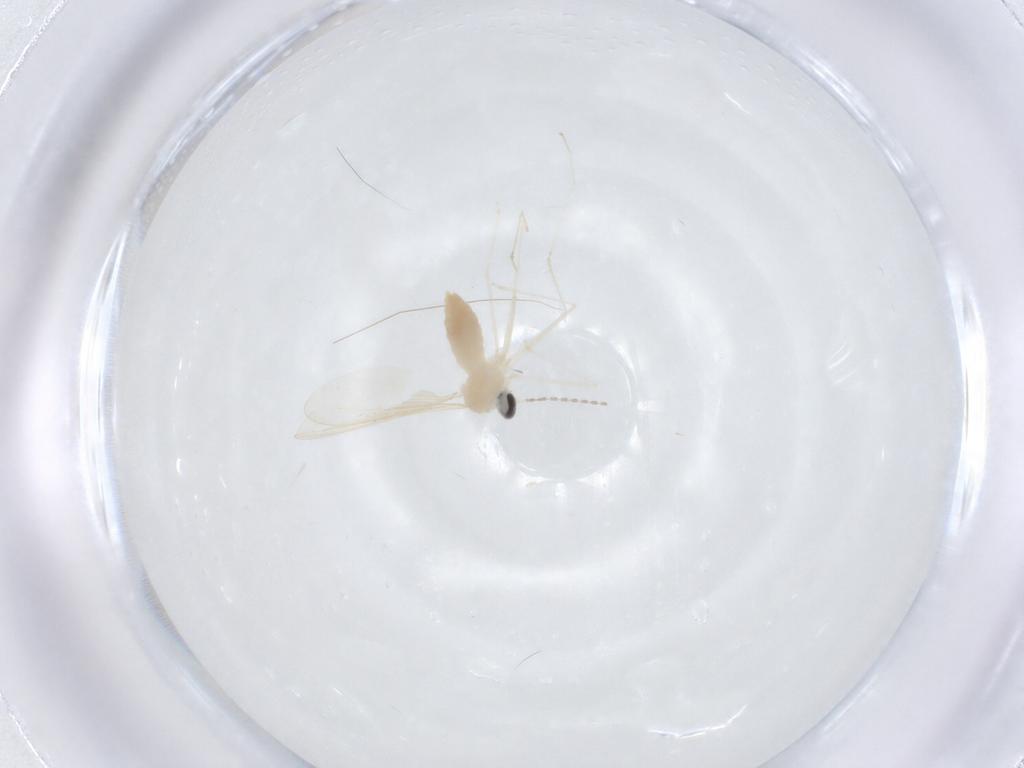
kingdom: Animalia
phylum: Arthropoda
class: Insecta
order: Diptera
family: Cecidomyiidae
